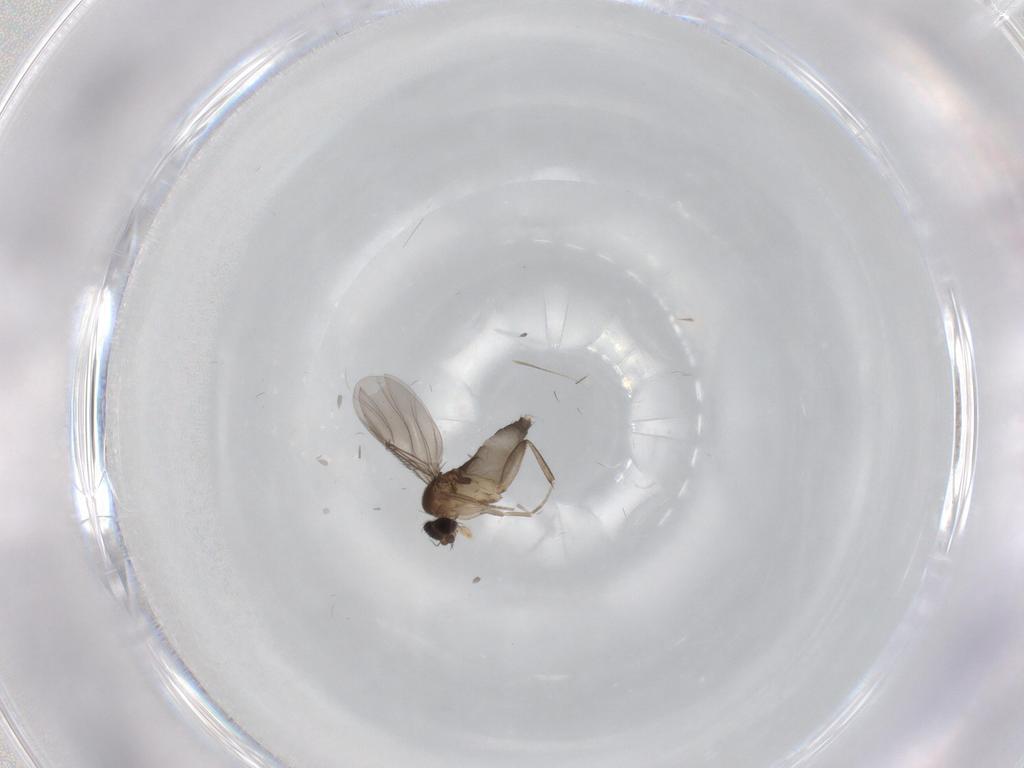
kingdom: Animalia
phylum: Arthropoda
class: Insecta
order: Diptera
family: Phoridae
